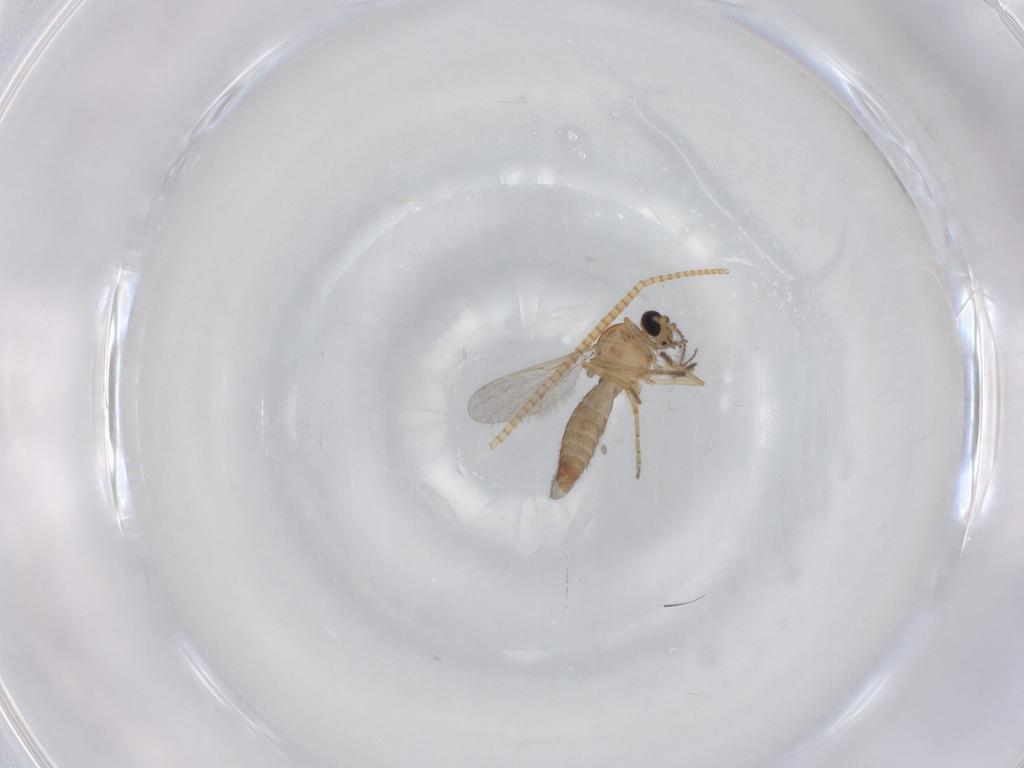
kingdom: Animalia
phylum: Arthropoda
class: Insecta
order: Diptera
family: Ceratopogonidae
